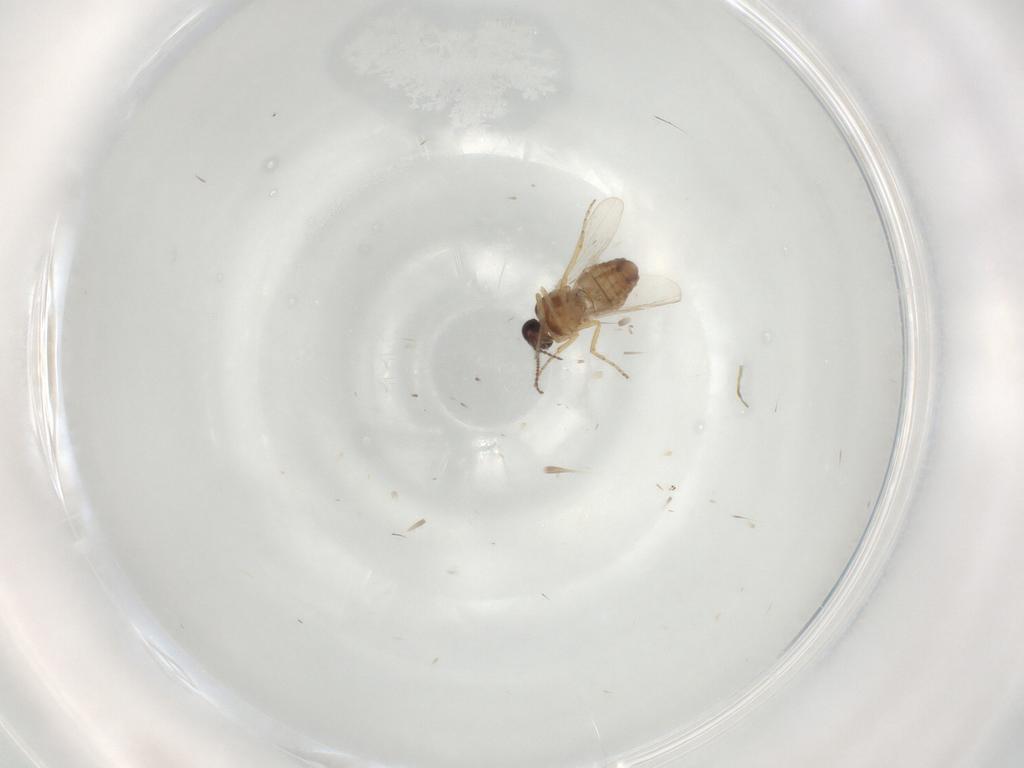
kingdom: Animalia
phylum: Arthropoda
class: Insecta
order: Diptera
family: Ceratopogonidae
